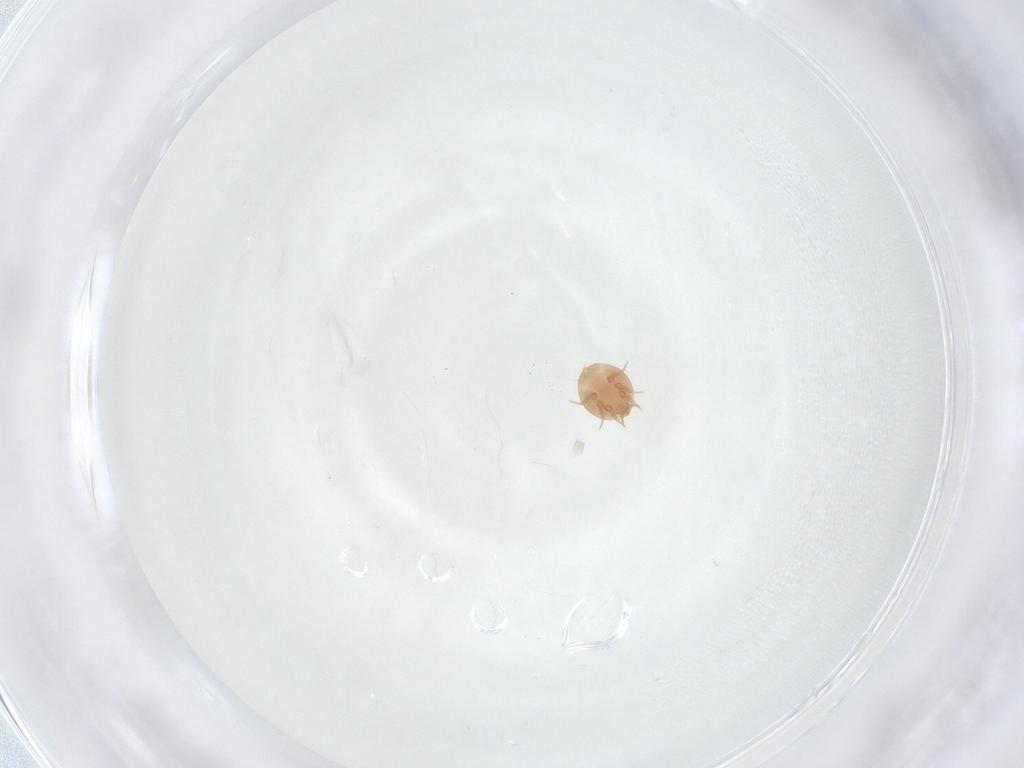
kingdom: Animalia
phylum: Arthropoda
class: Arachnida
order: Mesostigmata
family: Trematuridae
